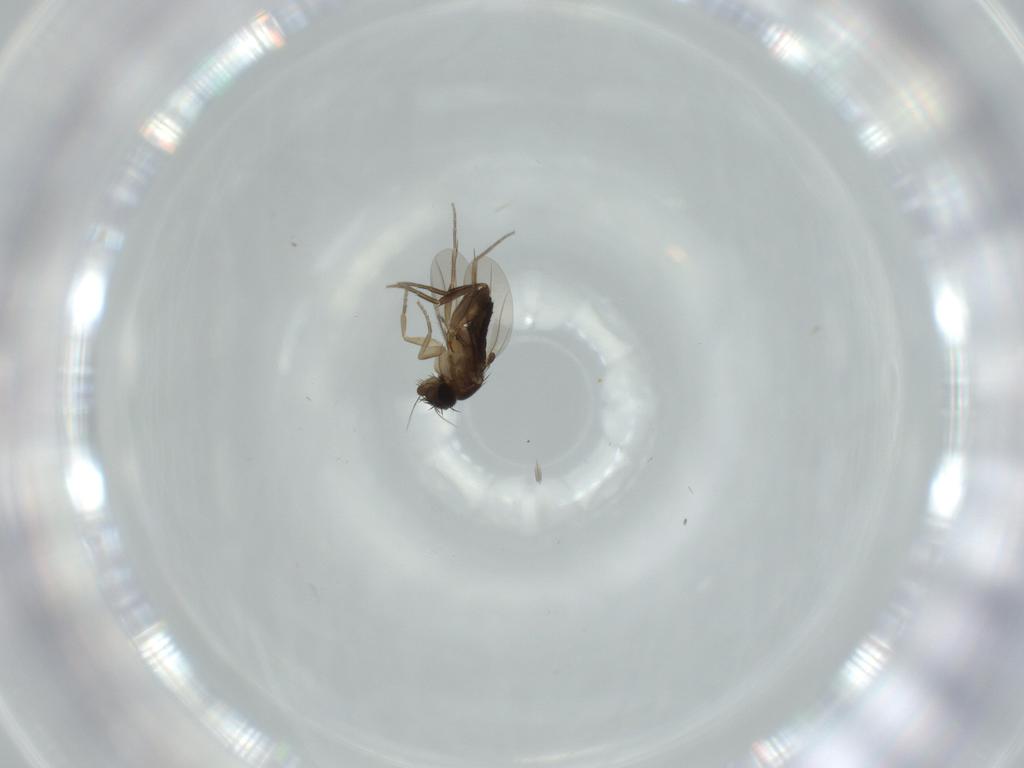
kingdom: Animalia
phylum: Arthropoda
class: Insecta
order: Diptera
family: Phoridae
